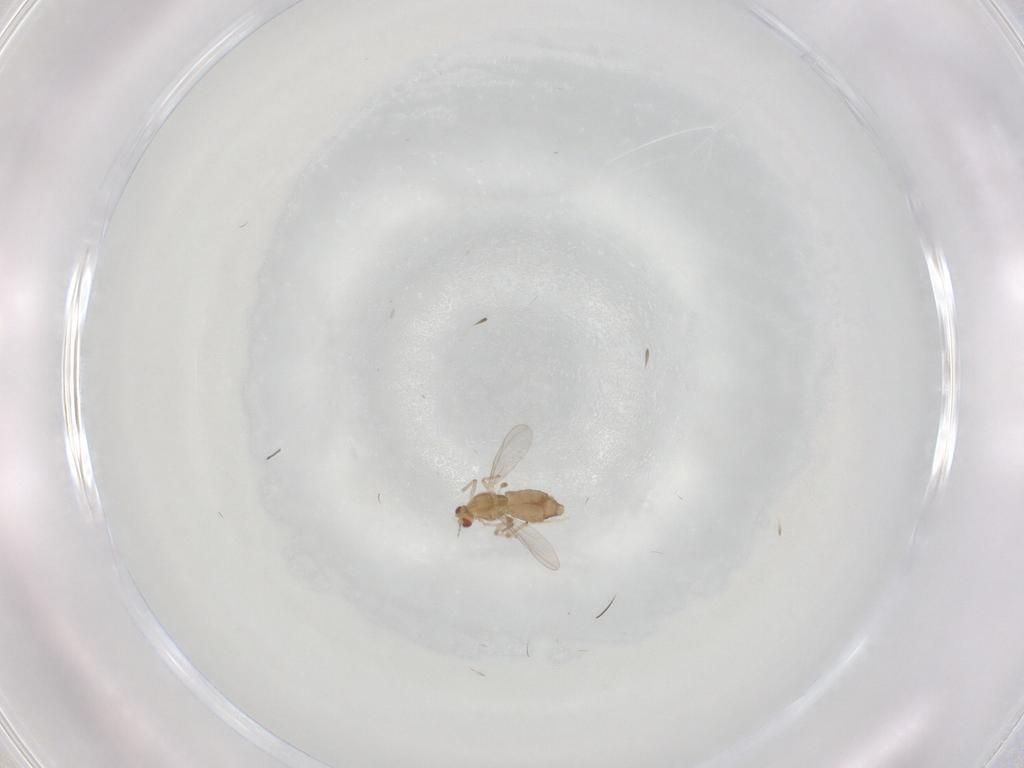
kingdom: Animalia
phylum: Arthropoda
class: Insecta
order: Diptera
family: Chironomidae
